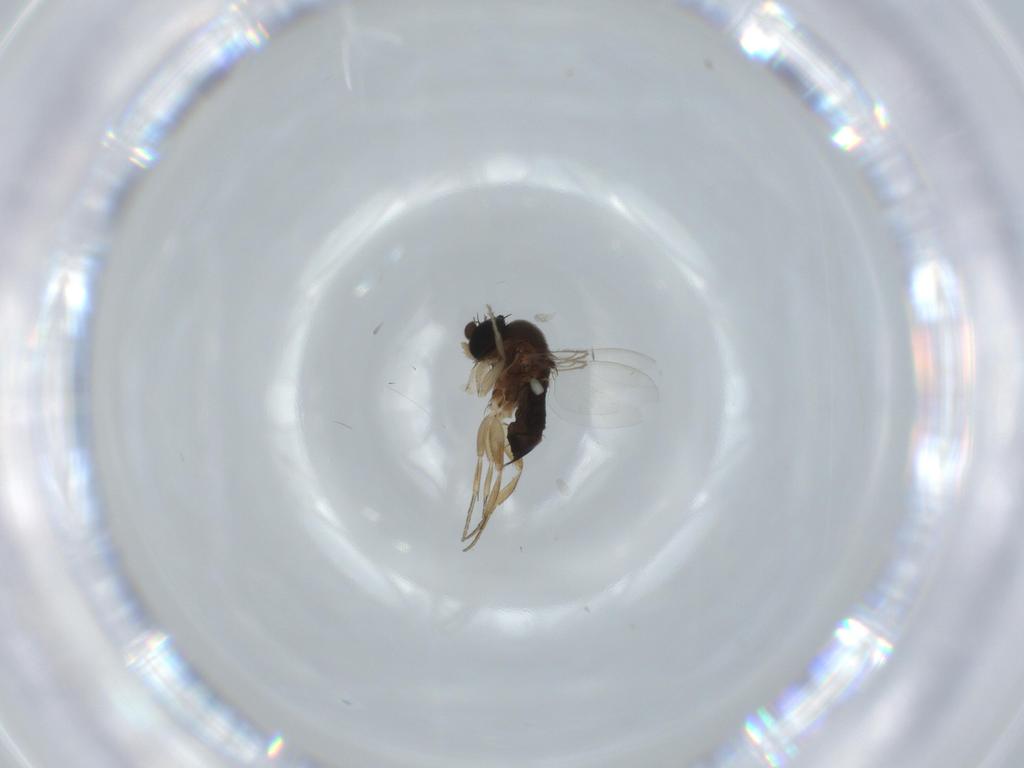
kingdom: Animalia
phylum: Arthropoda
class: Insecta
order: Diptera
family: Phoridae
